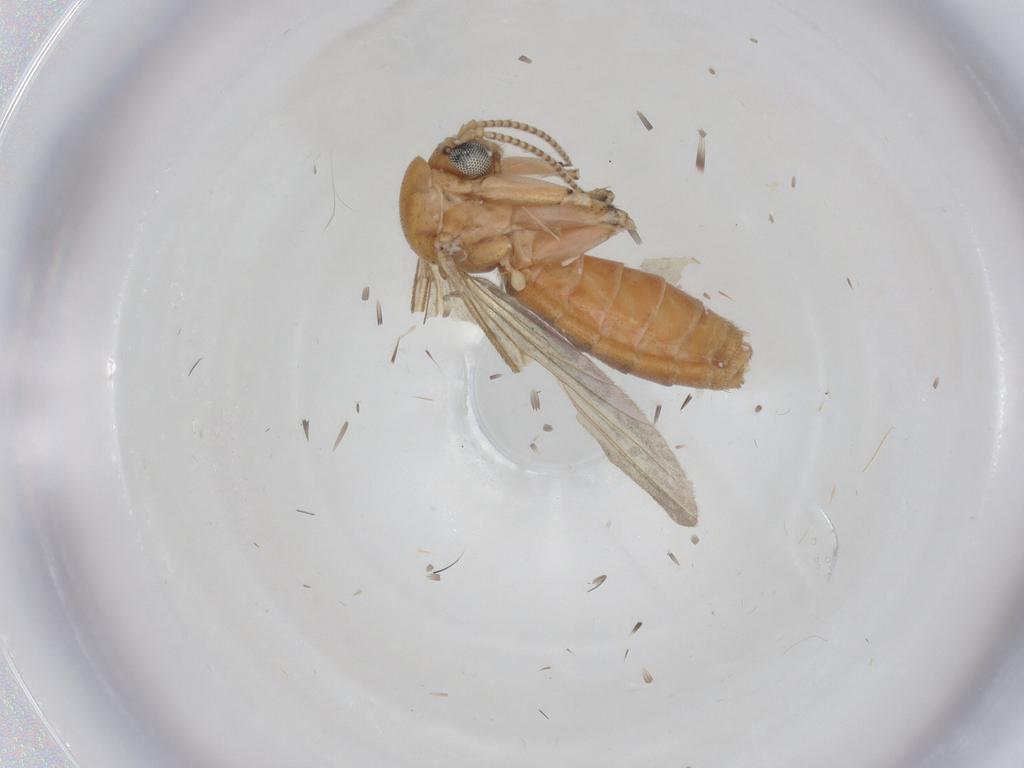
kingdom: Animalia
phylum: Arthropoda
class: Insecta
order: Diptera
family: Mycetophilidae
